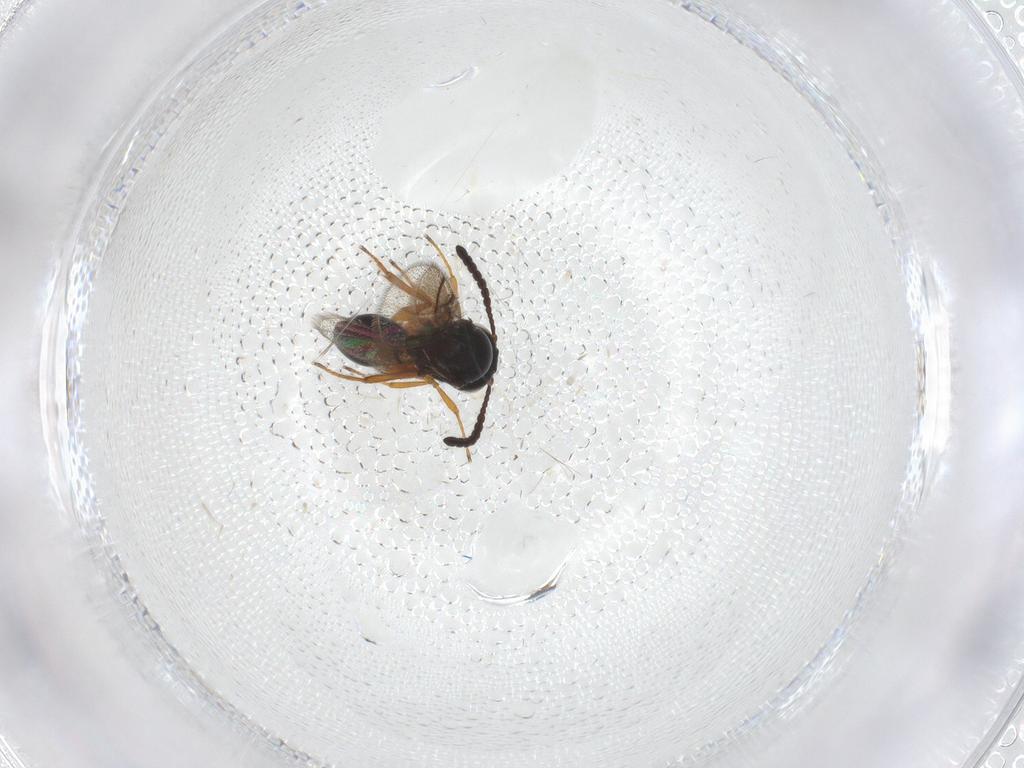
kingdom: Animalia
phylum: Arthropoda
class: Insecta
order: Hymenoptera
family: Figitidae
